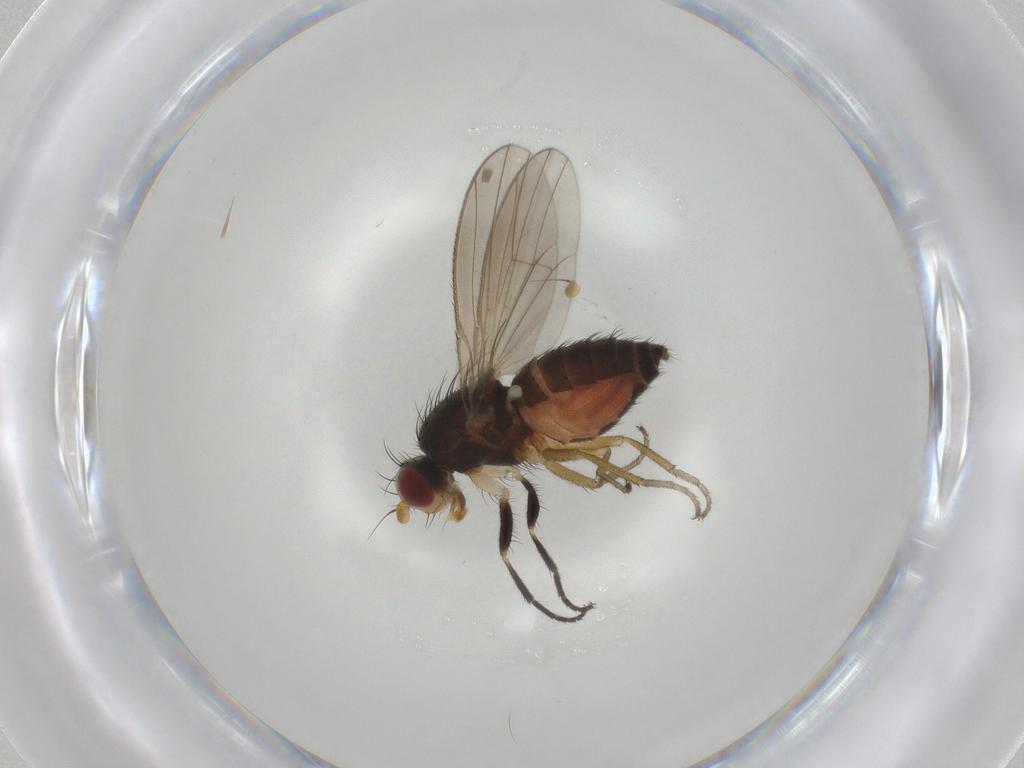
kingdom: Animalia
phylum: Arthropoda
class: Insecta
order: Diptera
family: Heleomyzidae
